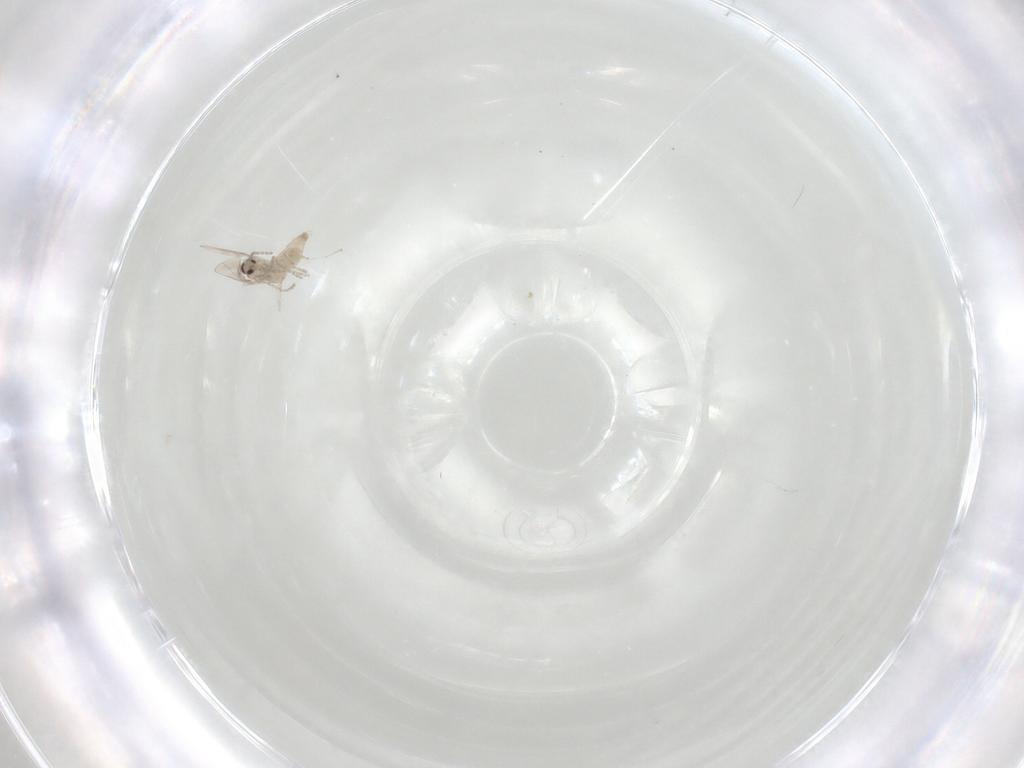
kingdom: Animalia
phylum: Arthropoda
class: Insecta
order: Diptera
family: Cecidomyiidae
